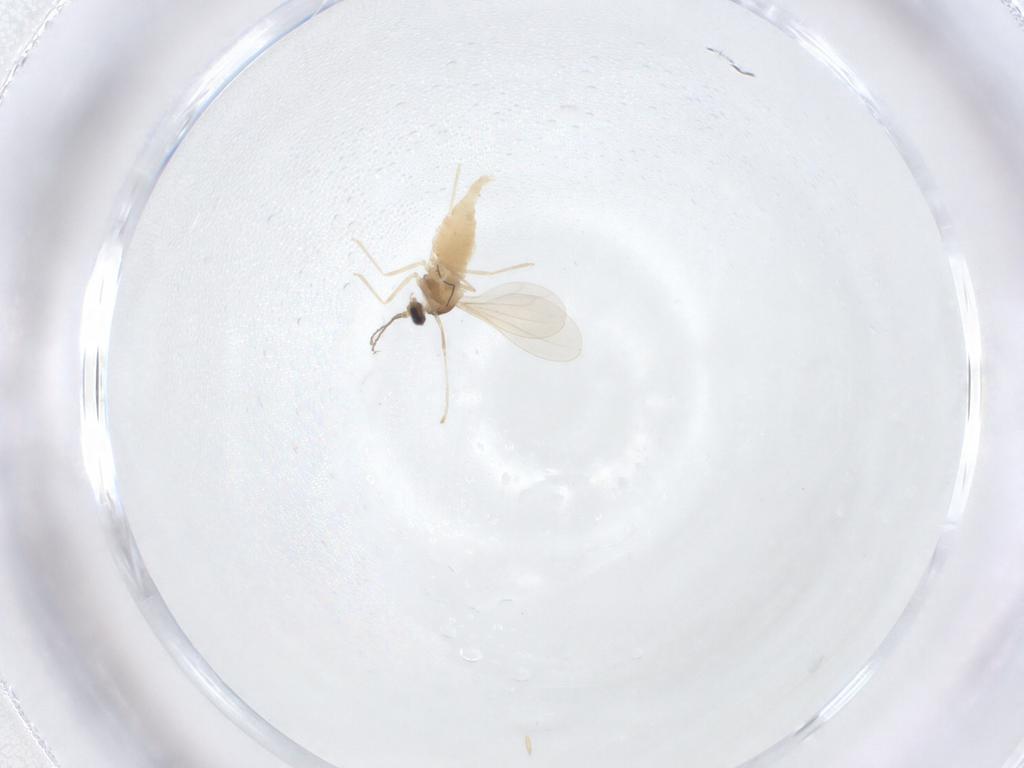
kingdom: Animalia
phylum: Arthropoda
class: Insecta
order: Diptera
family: Cecidomyiidae
